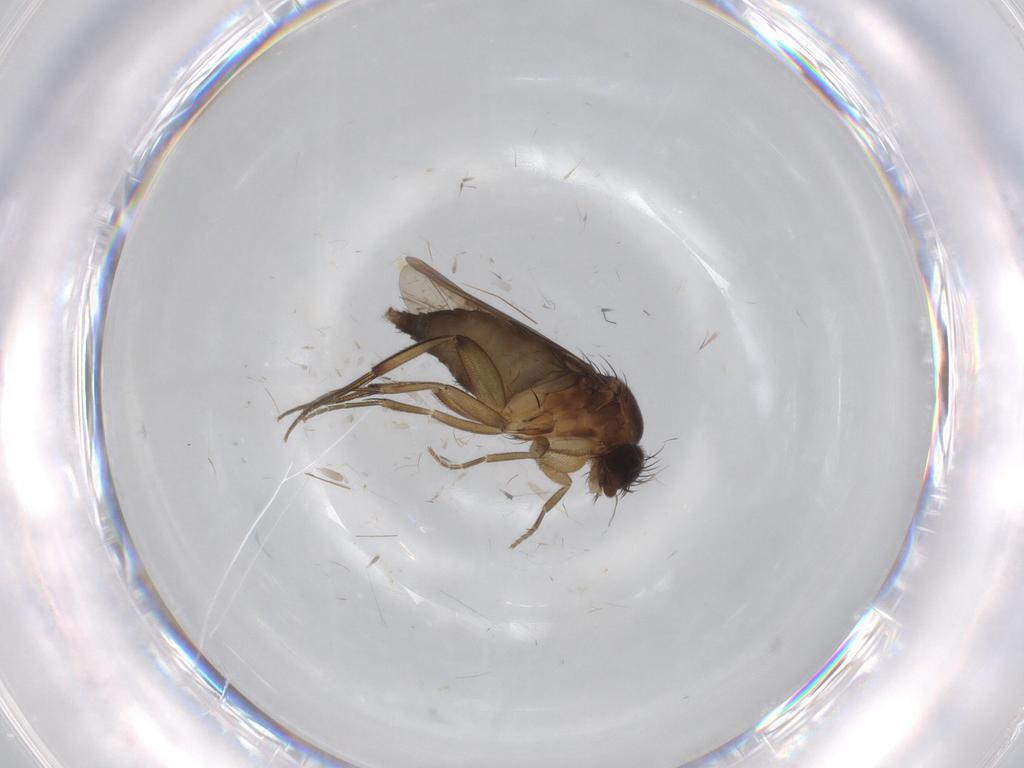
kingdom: Animalia
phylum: Arthropoda
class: Insecta
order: Diptera
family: Phoridae
